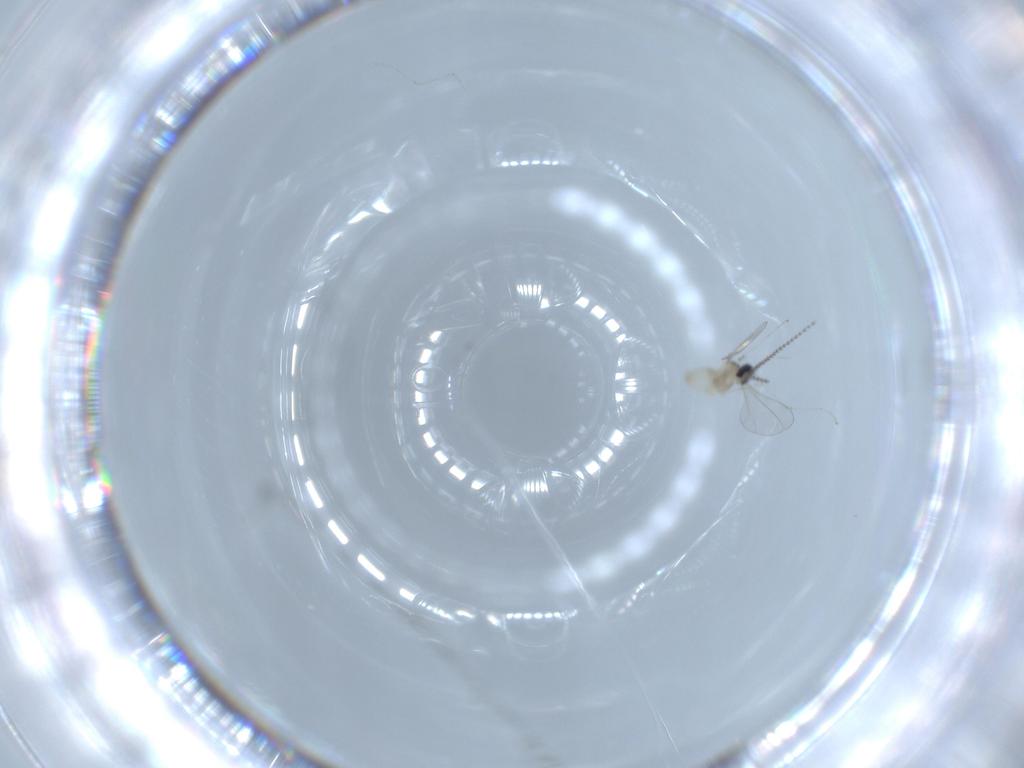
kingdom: Animalia
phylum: Arthropoda
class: Insecta
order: Diptera
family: Cecidomyiidae
